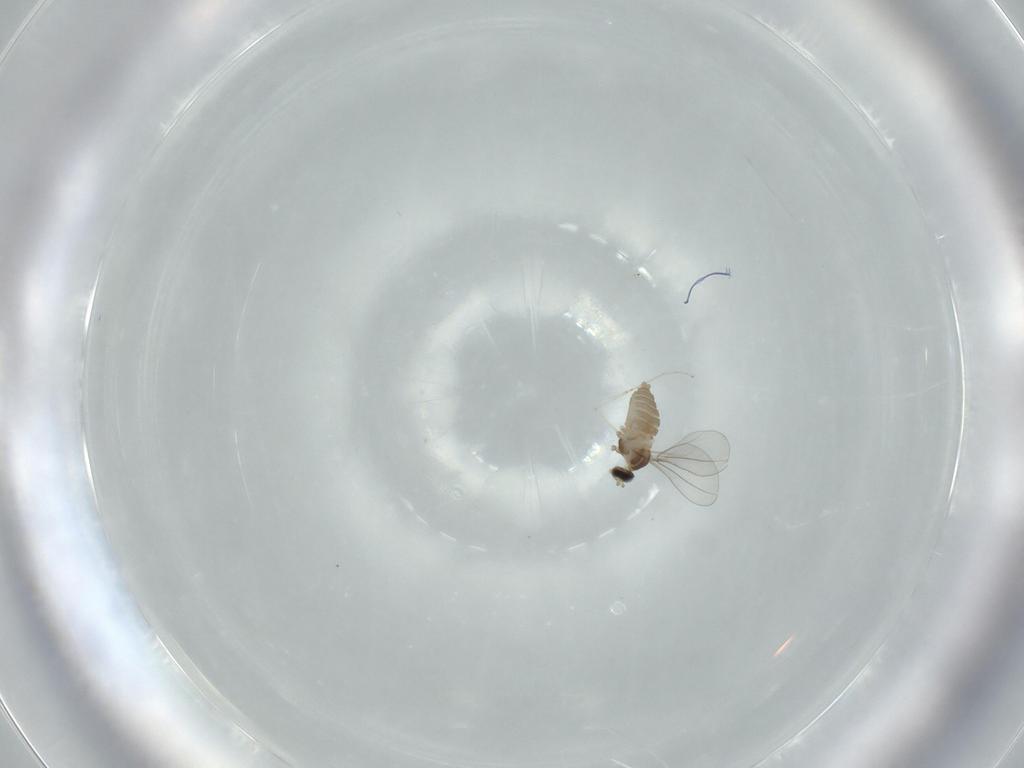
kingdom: Animalia
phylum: Arthropoda
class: Insecta
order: Diptera
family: Cecidomyiidae
